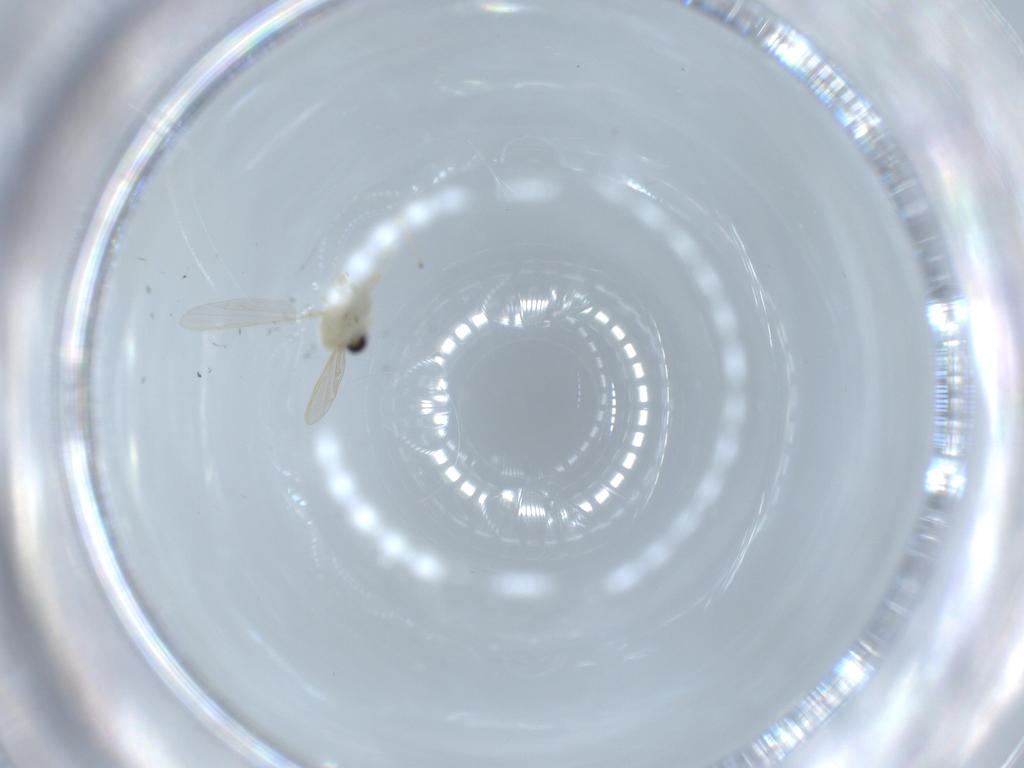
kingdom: Animalia
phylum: Arthropoda
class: Insecta
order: Diptera
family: Chironomidae
